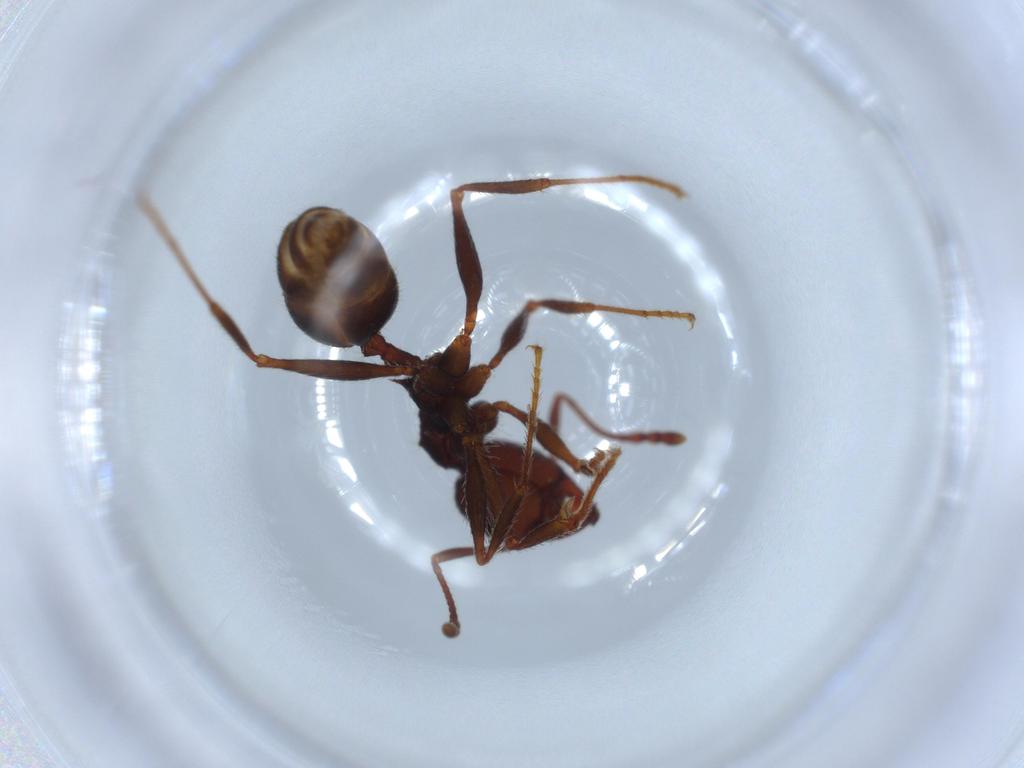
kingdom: Animalia
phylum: Arthropoda
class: Insecta
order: Hymenoptera
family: Formicidae
